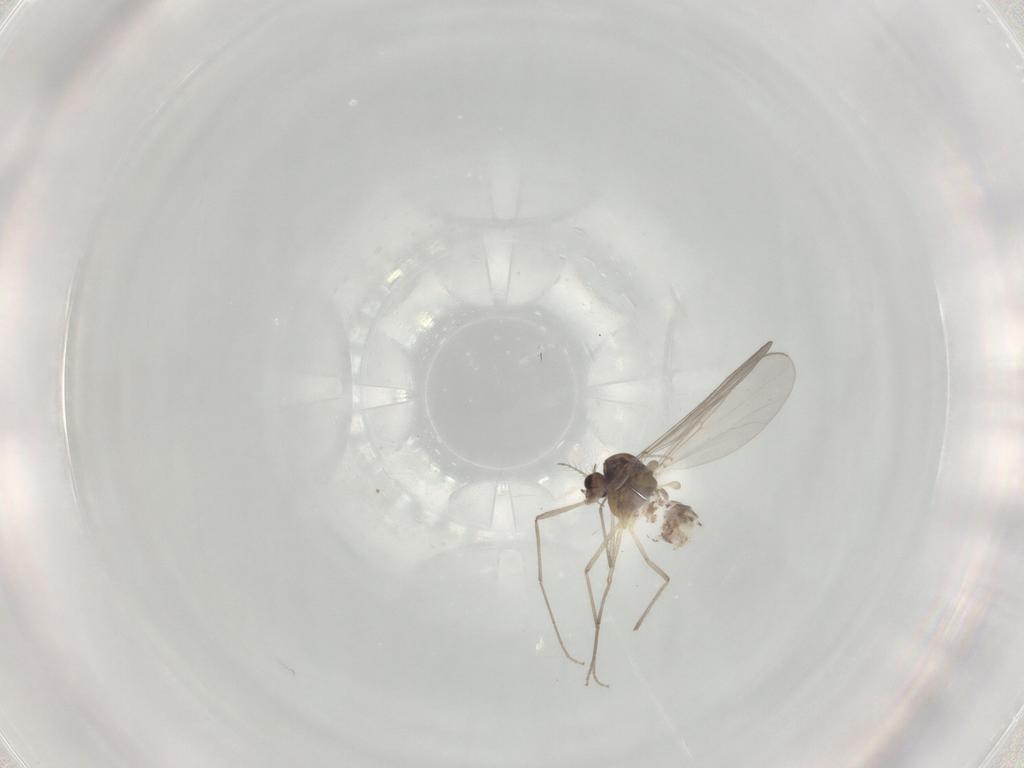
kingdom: Animalia
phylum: Arthropoda
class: Insecta
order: Diptera
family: Chironomidae
